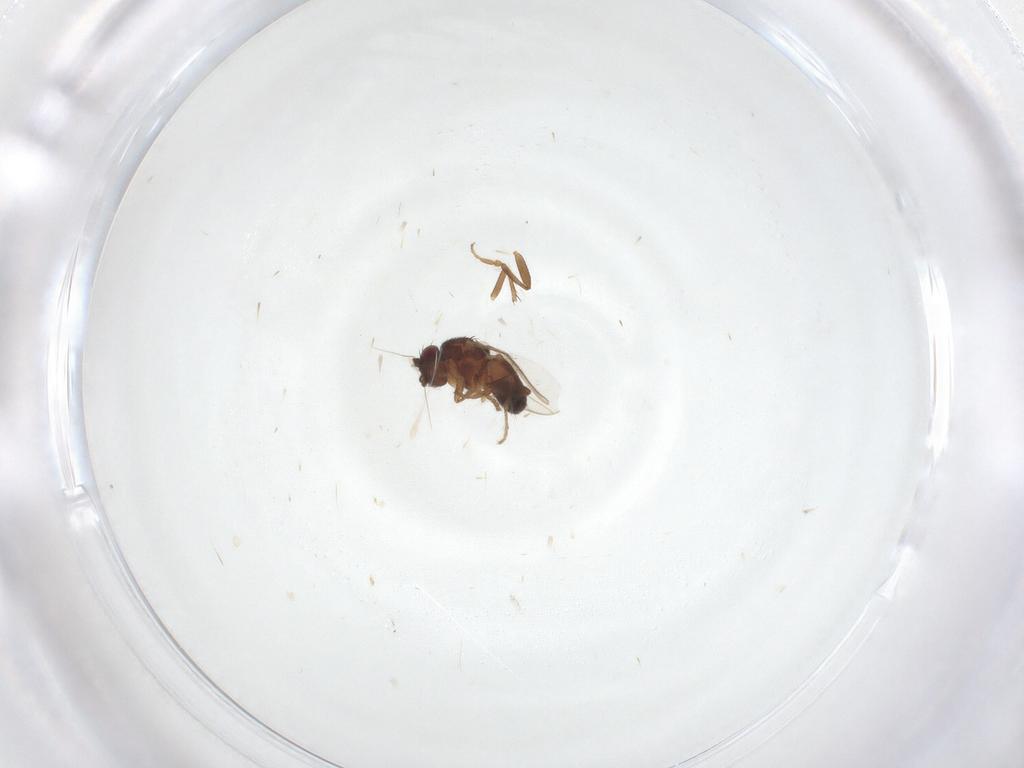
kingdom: Animalia
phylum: Arthropoda
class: Insecta
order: Diptera
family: Sphaeroceridae
